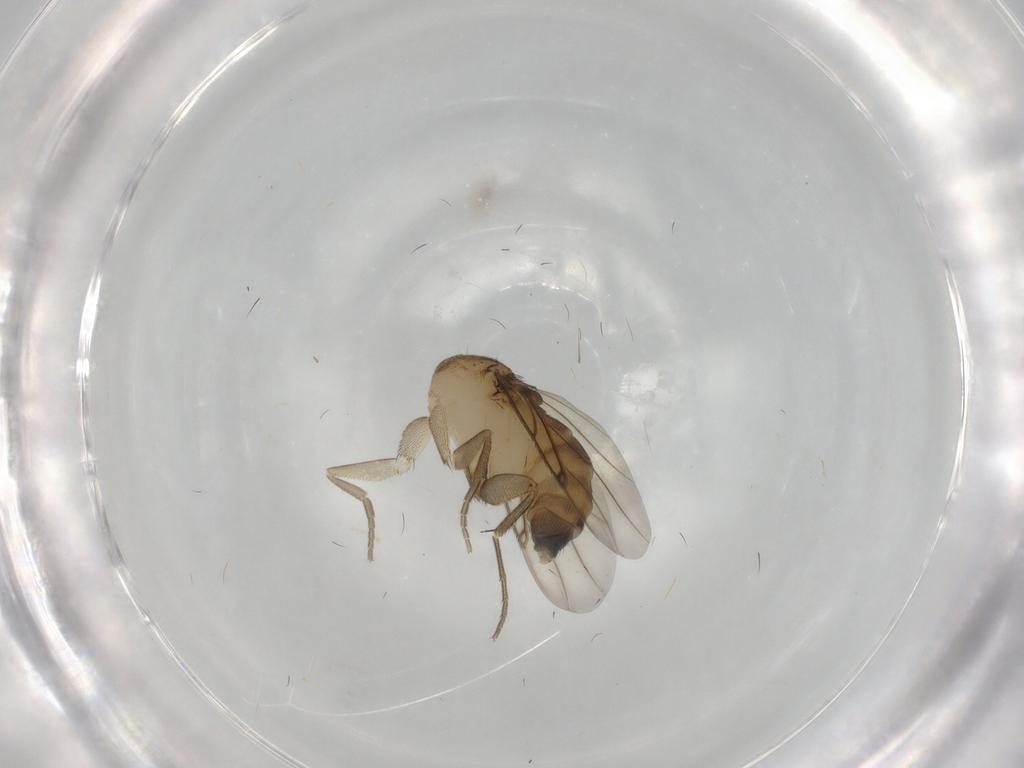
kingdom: Animalia
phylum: Arthropoda
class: Insecta
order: Diptera
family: Phoridae
